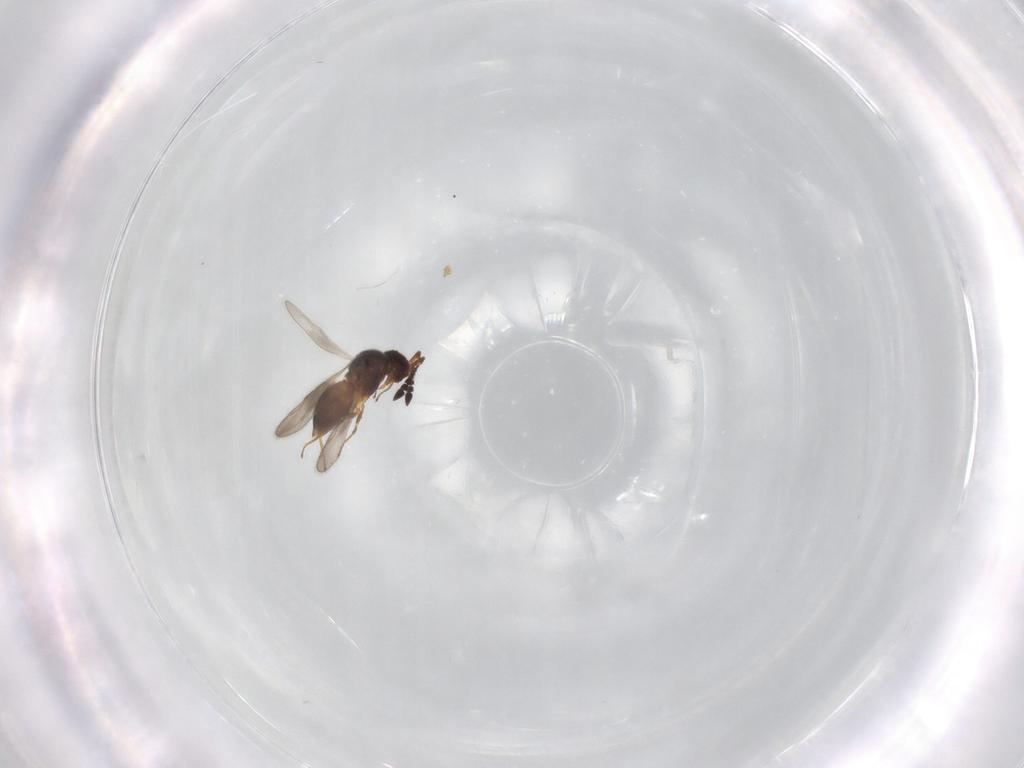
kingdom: Animalia
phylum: Arthropoda
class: Insecta
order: Hymenoptera
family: Ceraphronidae
